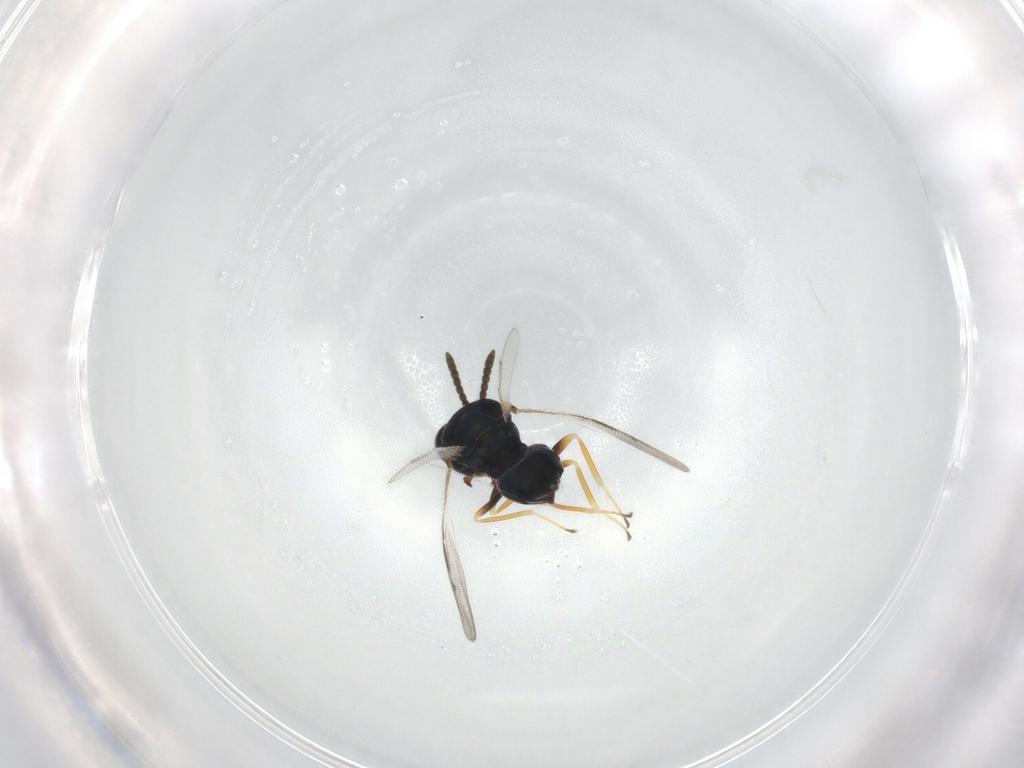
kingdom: Animalia
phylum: Arthropoda
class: Insecta
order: Hymenoptera
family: Pteromalidae
